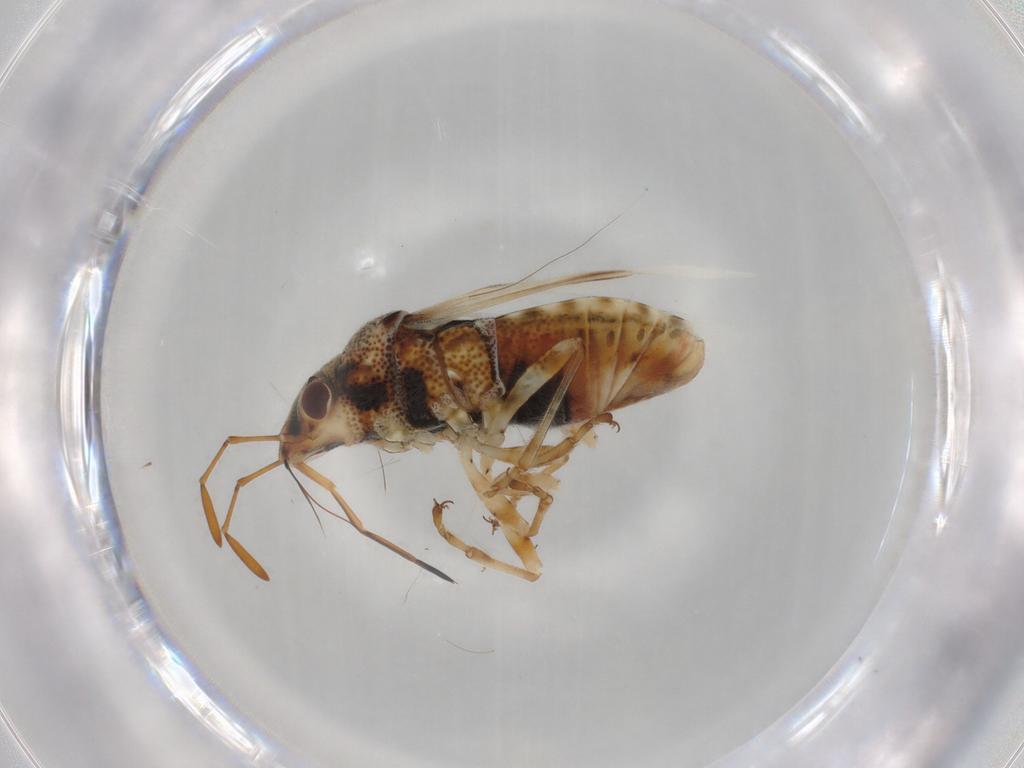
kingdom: Animalia
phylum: Arthropoda
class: Insecta
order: Hemiptera
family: Lygaeidae
